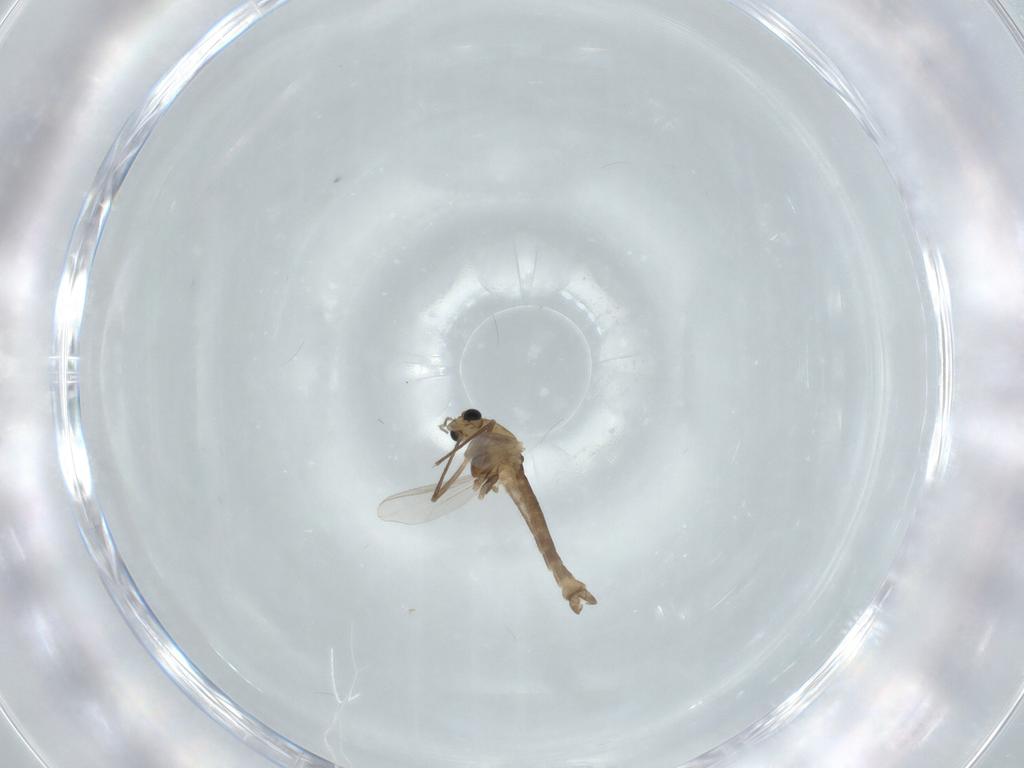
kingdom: Animalia
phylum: Arthropoda
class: Insecta
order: Diptera
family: Chironomidae
